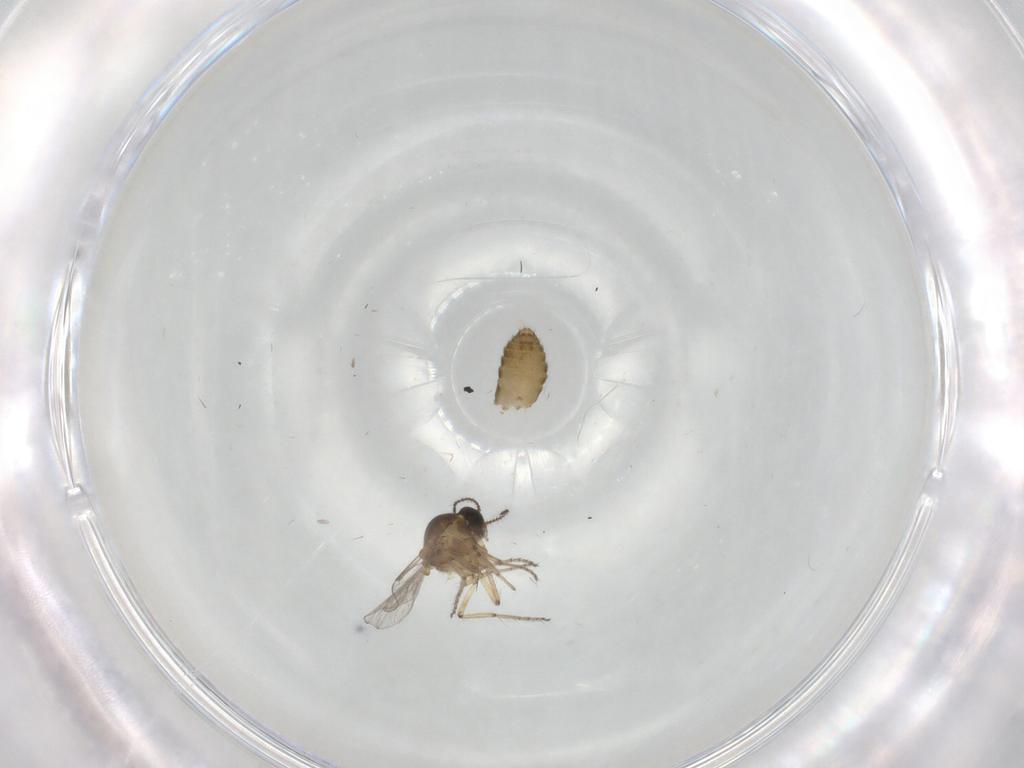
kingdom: Animalia
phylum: Arthropoda
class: Insecta
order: Diptera
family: Ceratopogonidae
